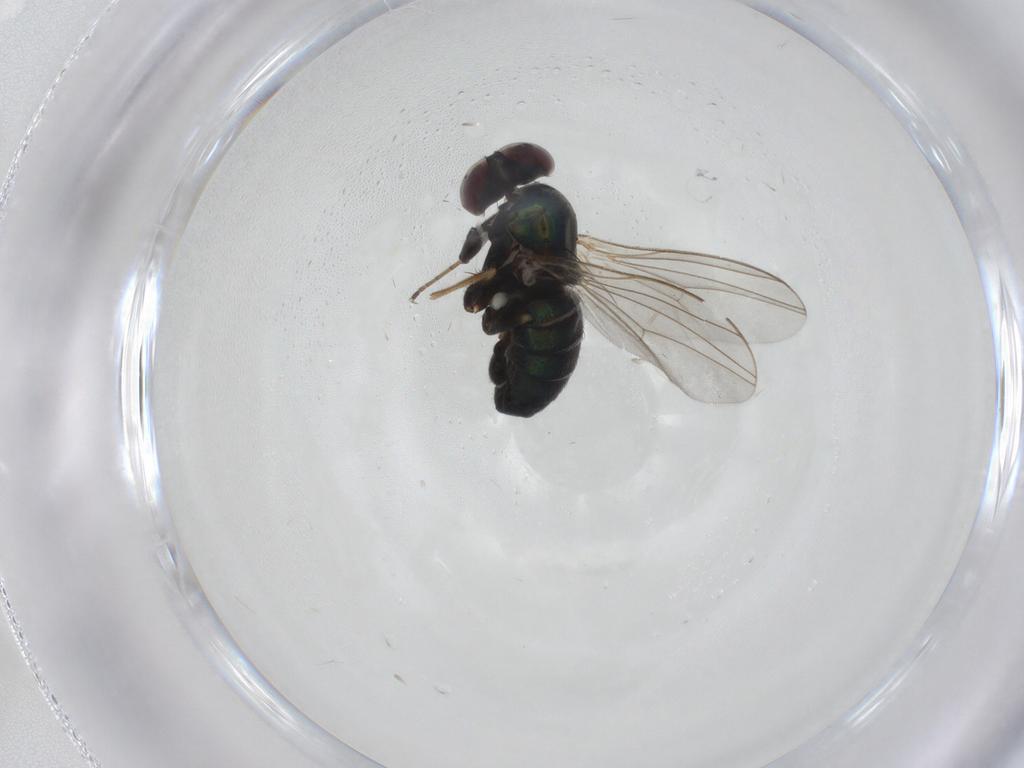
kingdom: Animalia
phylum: Arthropoda
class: Insecta
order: Diptera
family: Dolichopodidae
